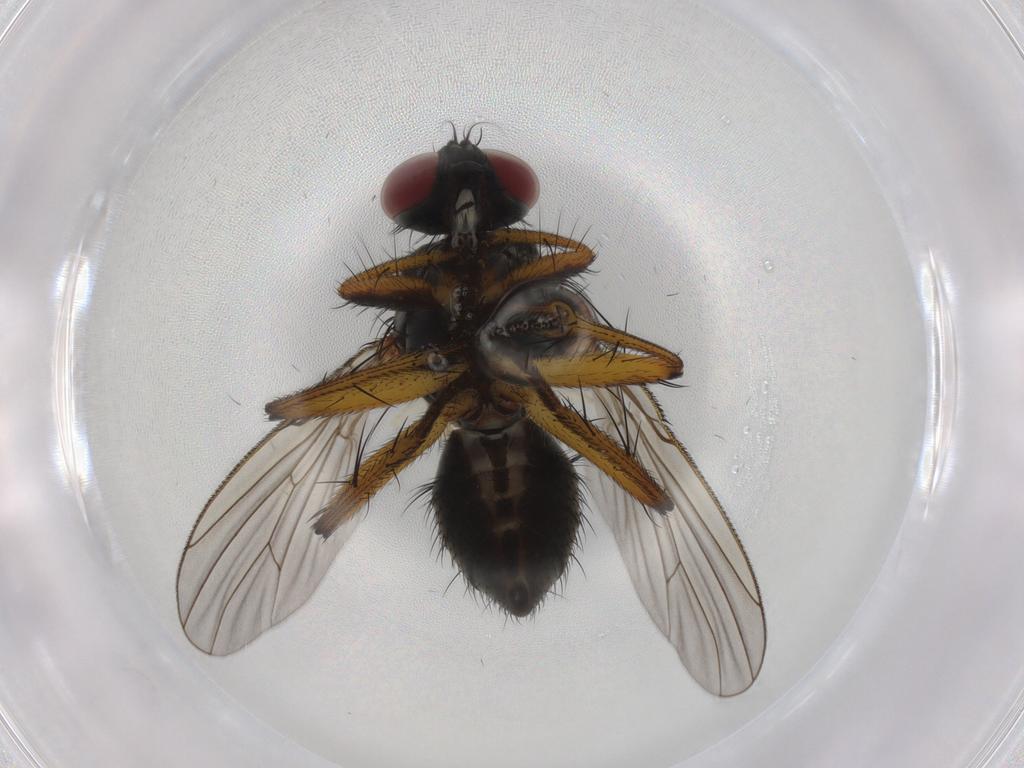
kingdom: Animalia
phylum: Arthropoda
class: Insecta
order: Diptera
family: Muscidae
